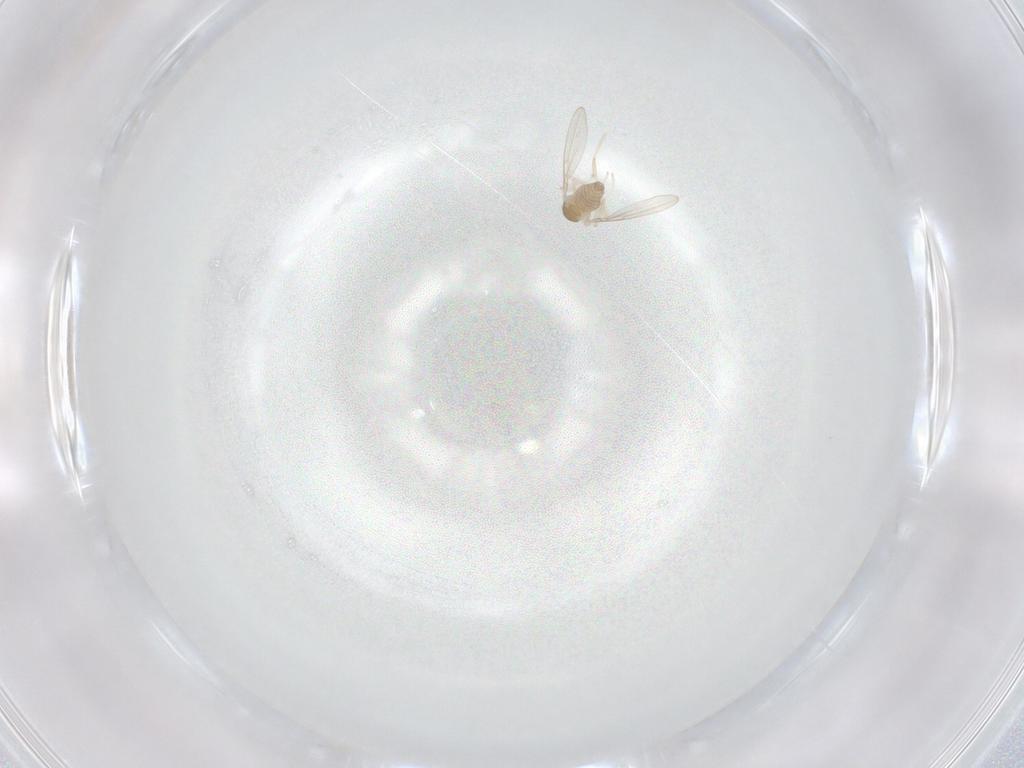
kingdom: Animalia
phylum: Arthropoda
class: Insecta
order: Diptera
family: Cecidomyiidae
